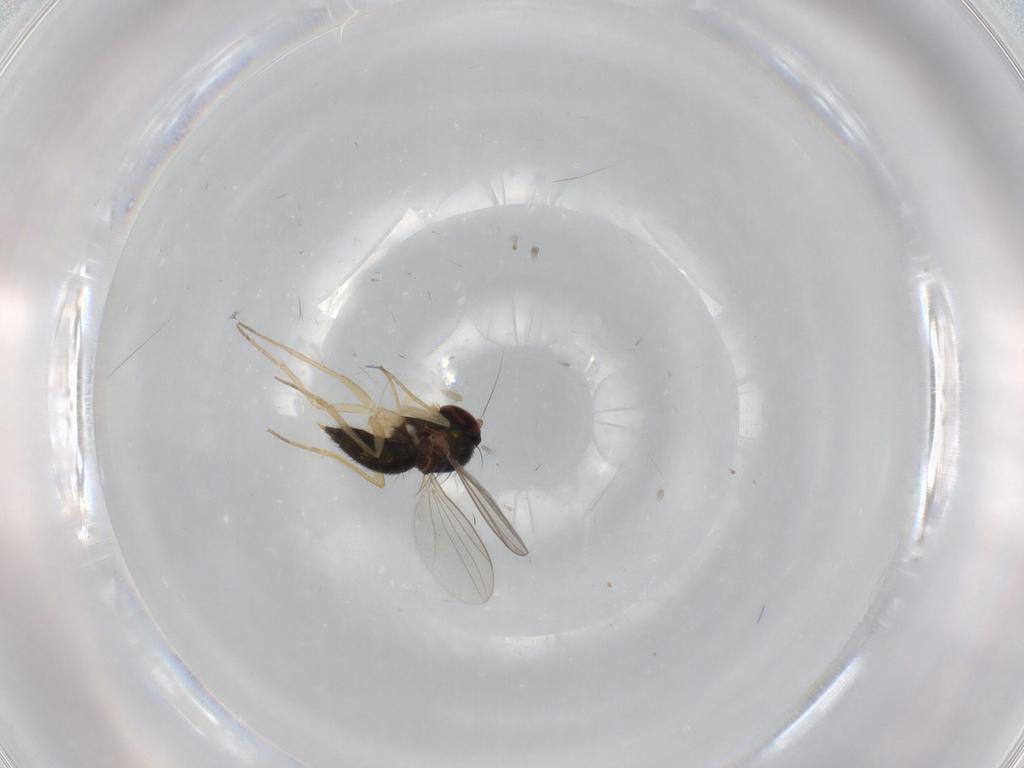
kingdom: Animalia
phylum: Arthropoda
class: Insecta
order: Diptera
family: Dolichopodidae
